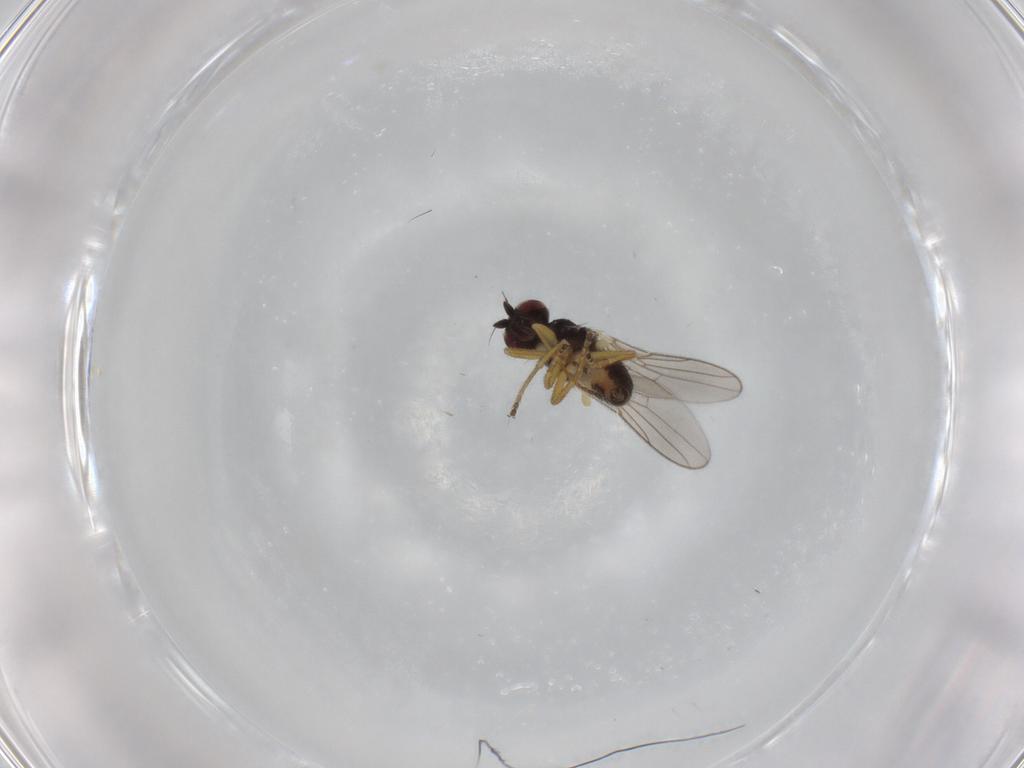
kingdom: Animalia
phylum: Arthropoda
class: Insecta
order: Diptera
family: Chloropidae
